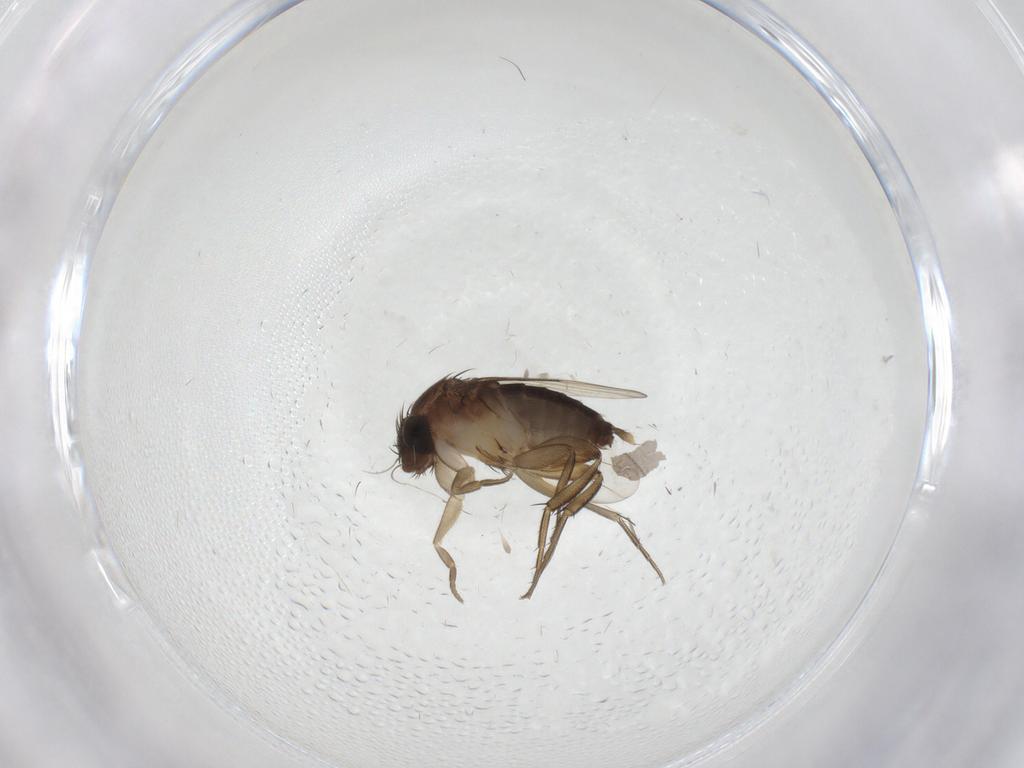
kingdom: Animalia
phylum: Arthropoda
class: Insecta
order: Diptera
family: Phoridae
